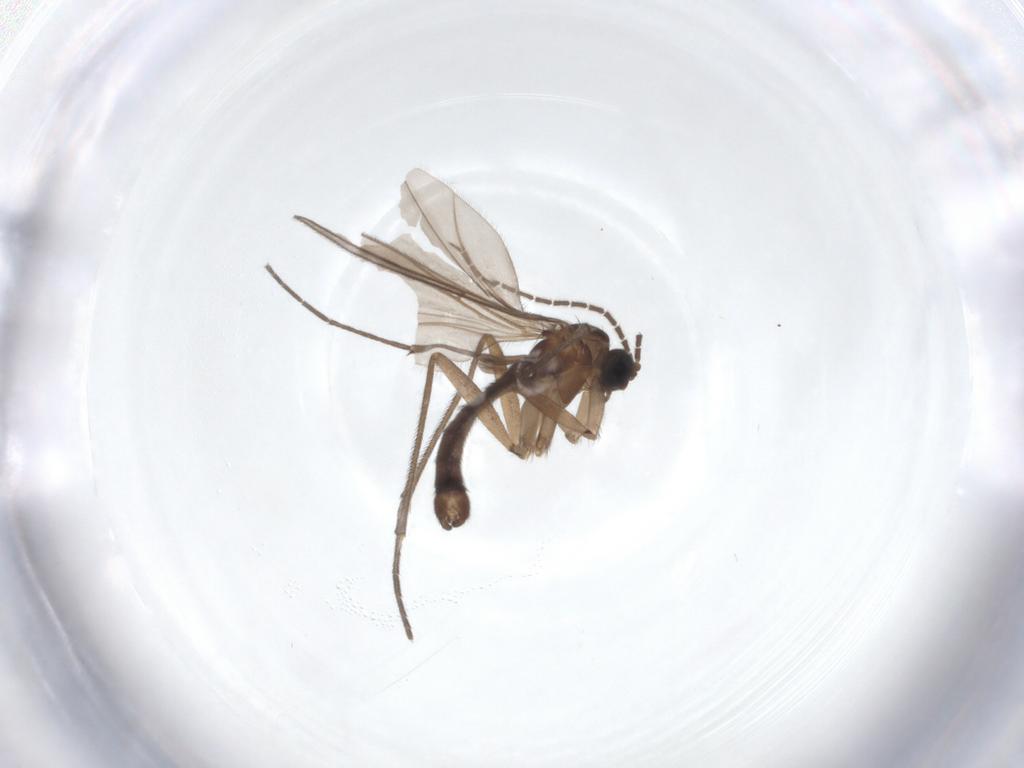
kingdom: Animalia
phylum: Arthropoda
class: Insecta
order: Diptera
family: Sciaridae
